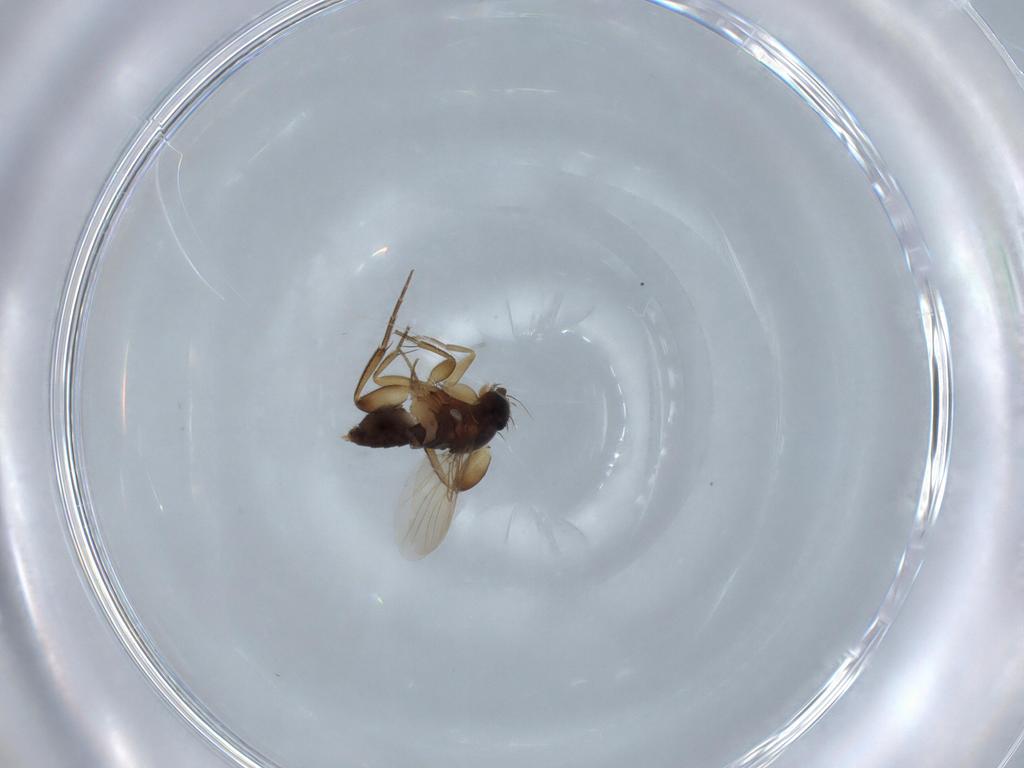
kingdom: Animalia
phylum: Arthropoda
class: Insecta
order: Diptera
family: Phoridae
